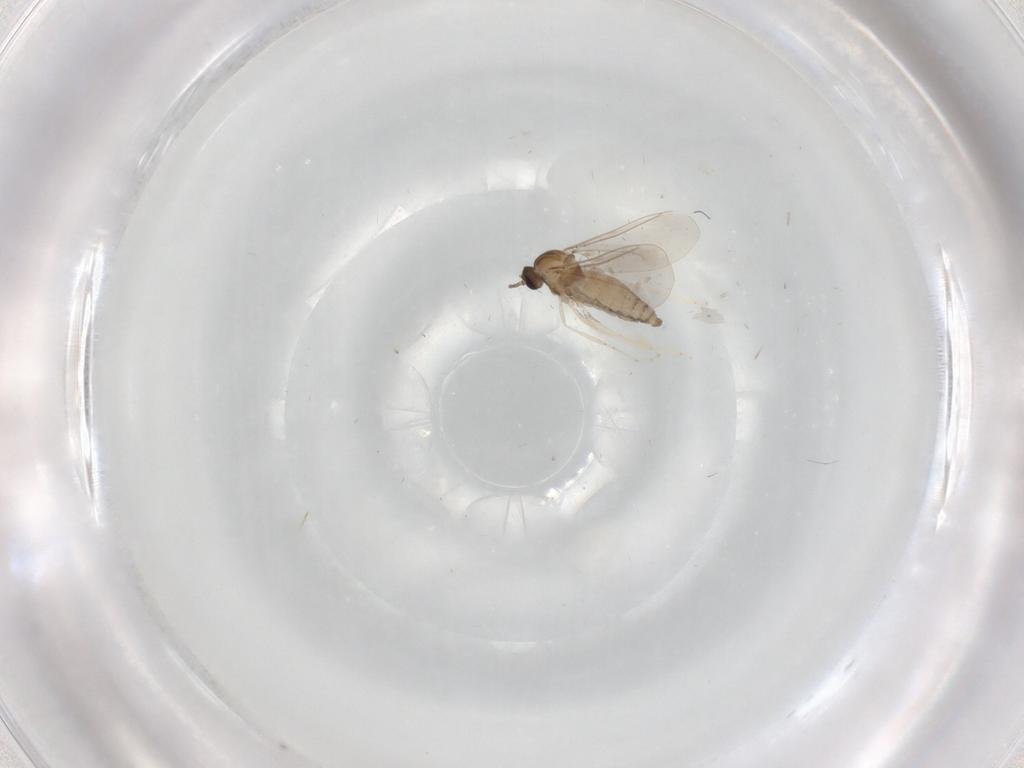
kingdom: Animalia
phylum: Arthropoda
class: Insecta
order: Diptera
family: Cecidomyiidae
